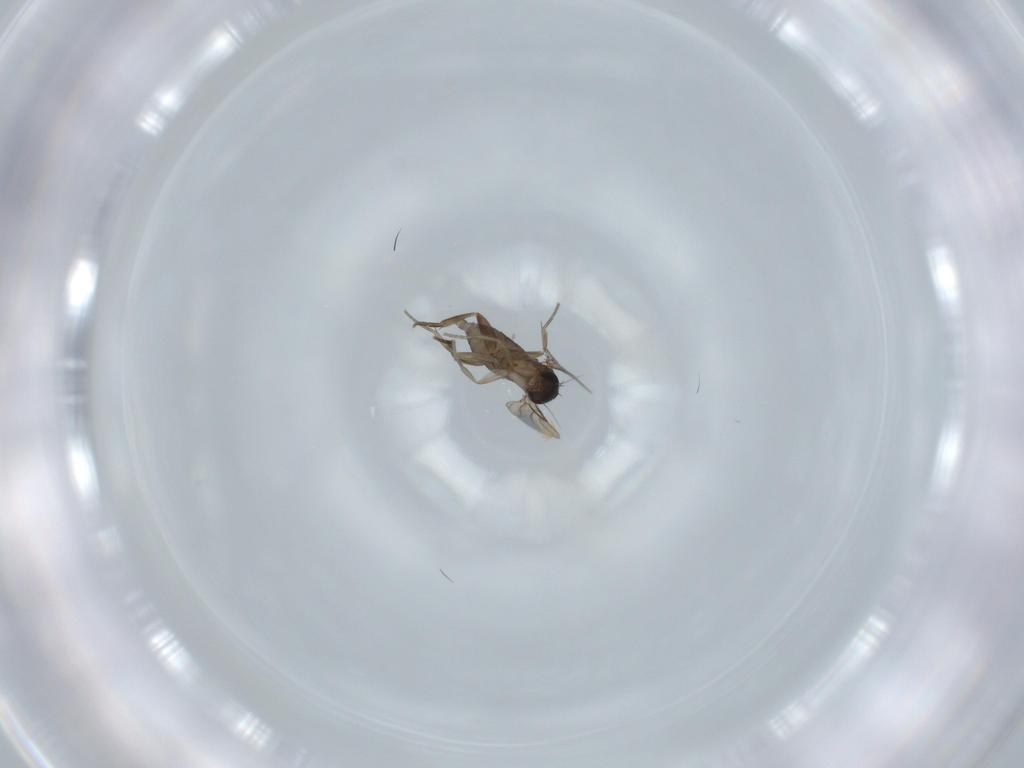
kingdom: Animalia
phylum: Arthropoda
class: Insecta
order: Diptera
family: Phoridae
